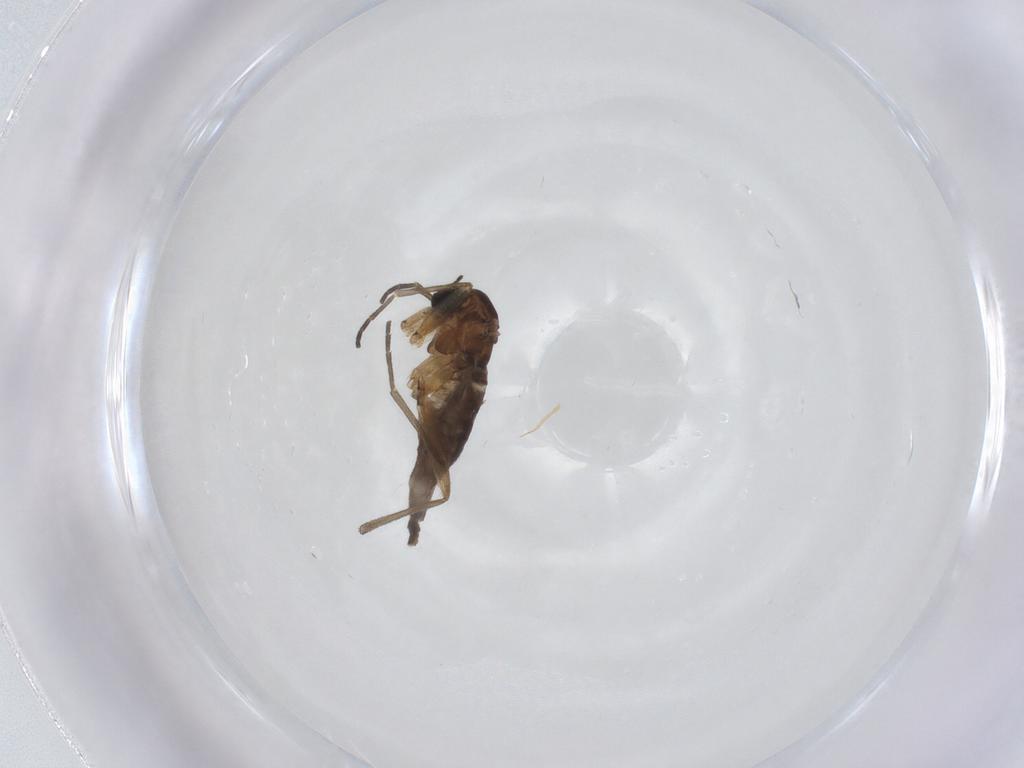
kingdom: Animalia
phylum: Arthropoda
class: Insecta
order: Diptera
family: Sciaridae
